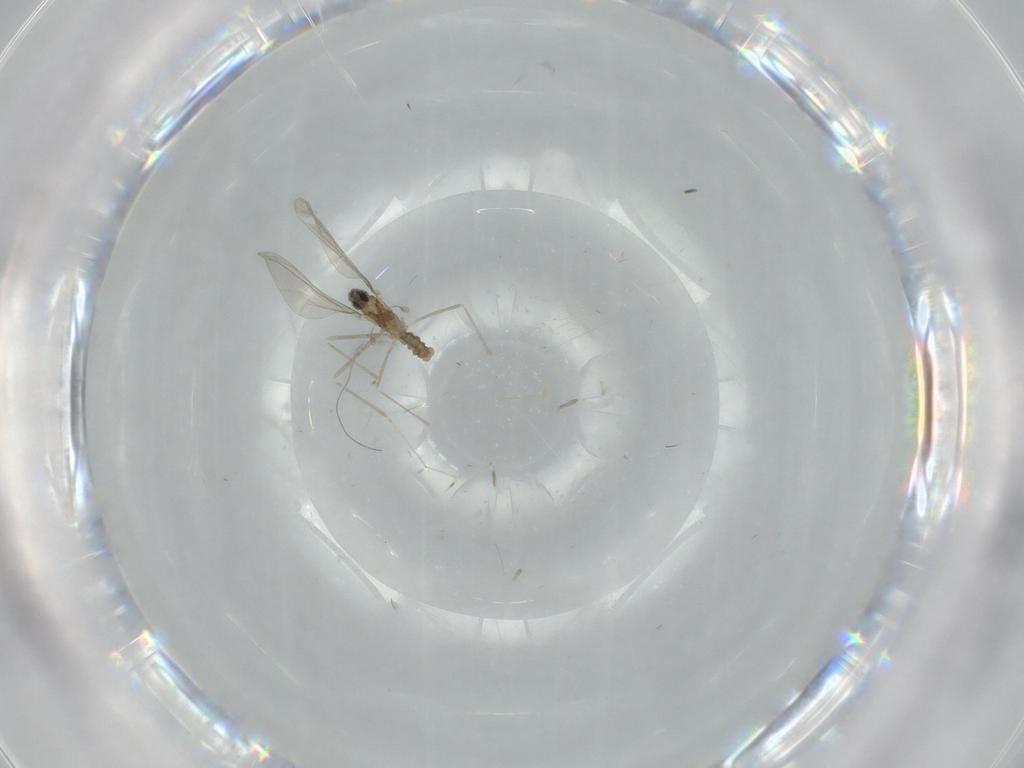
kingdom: Animalia
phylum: Arthropoda
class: Insecta
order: Diptera
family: Cecidomyiidae
